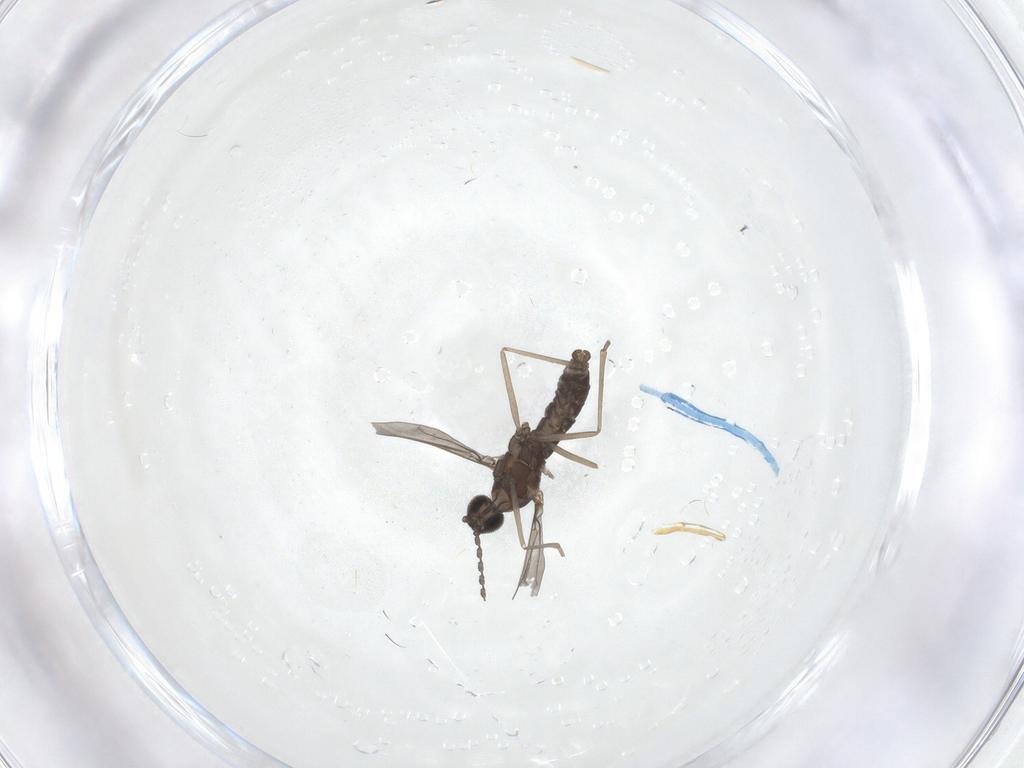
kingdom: Animalia
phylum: Arthropoda
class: Insecta
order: Diptera
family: Cecidomyiidae
